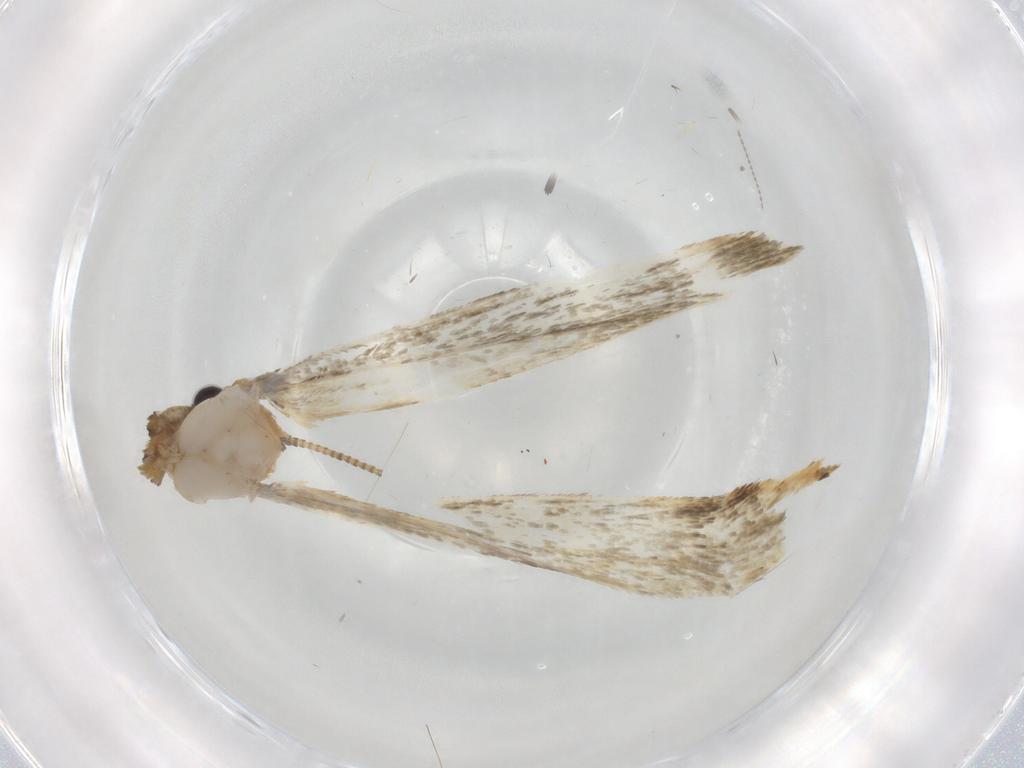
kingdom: Animalia
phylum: Arthropoda
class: Insecta
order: Lepidoptera
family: Tineidae
